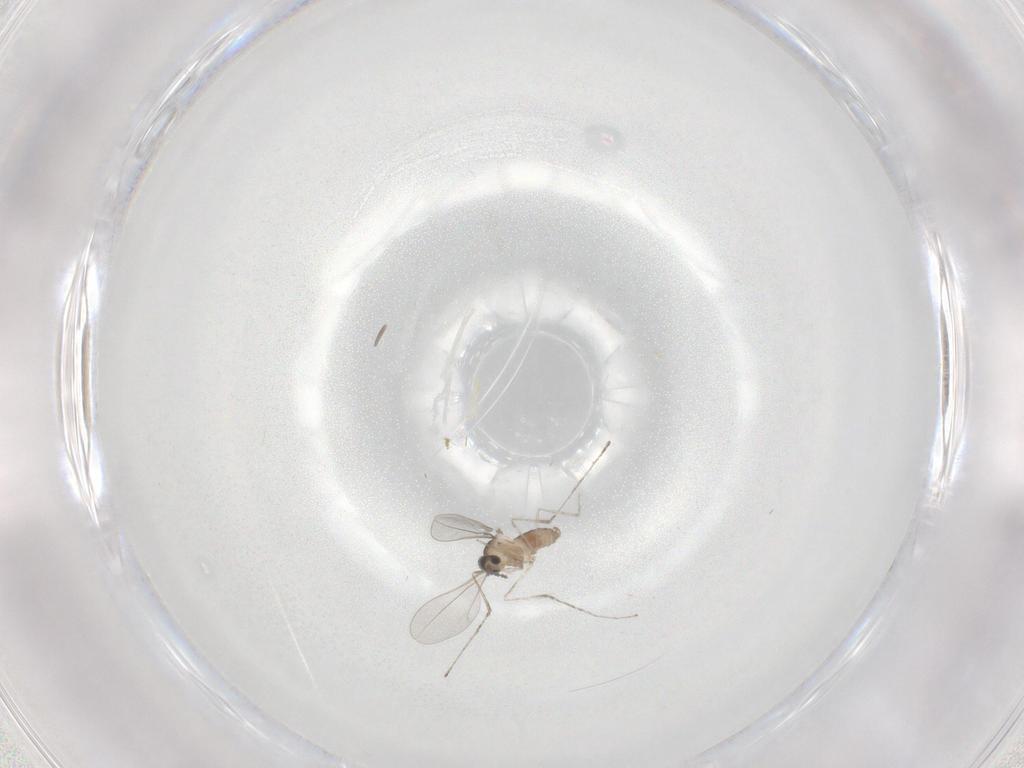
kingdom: Animalia
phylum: Arthropoda
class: Insecta
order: Diptera
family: Cecidomyiidae
